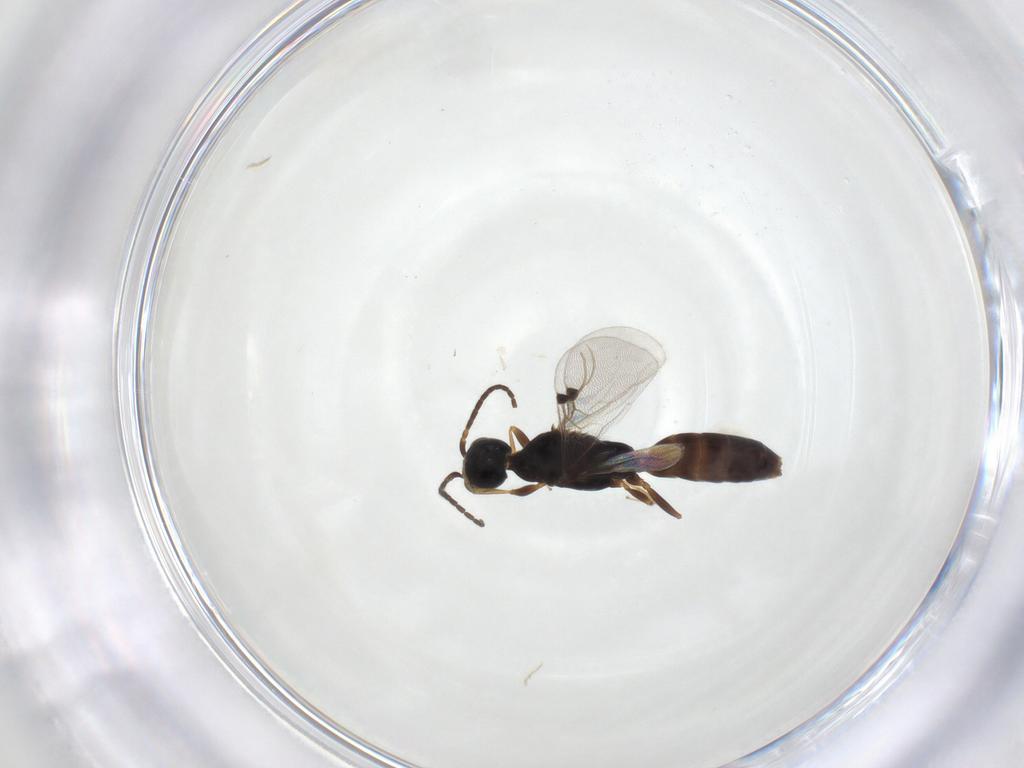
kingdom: Animalia
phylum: Arthropoda
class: Insecta
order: Hymenoptera
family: Bethylidae
